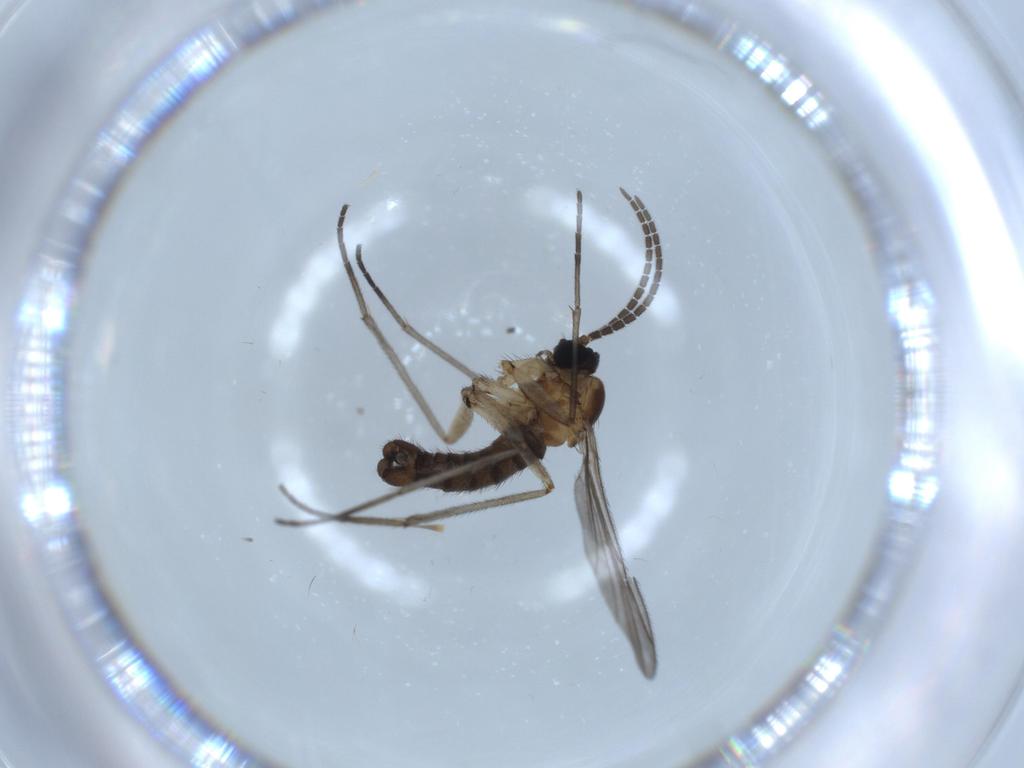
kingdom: Animalia
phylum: Arthropoda
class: Insecta
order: Diptera
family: Sciaridae
